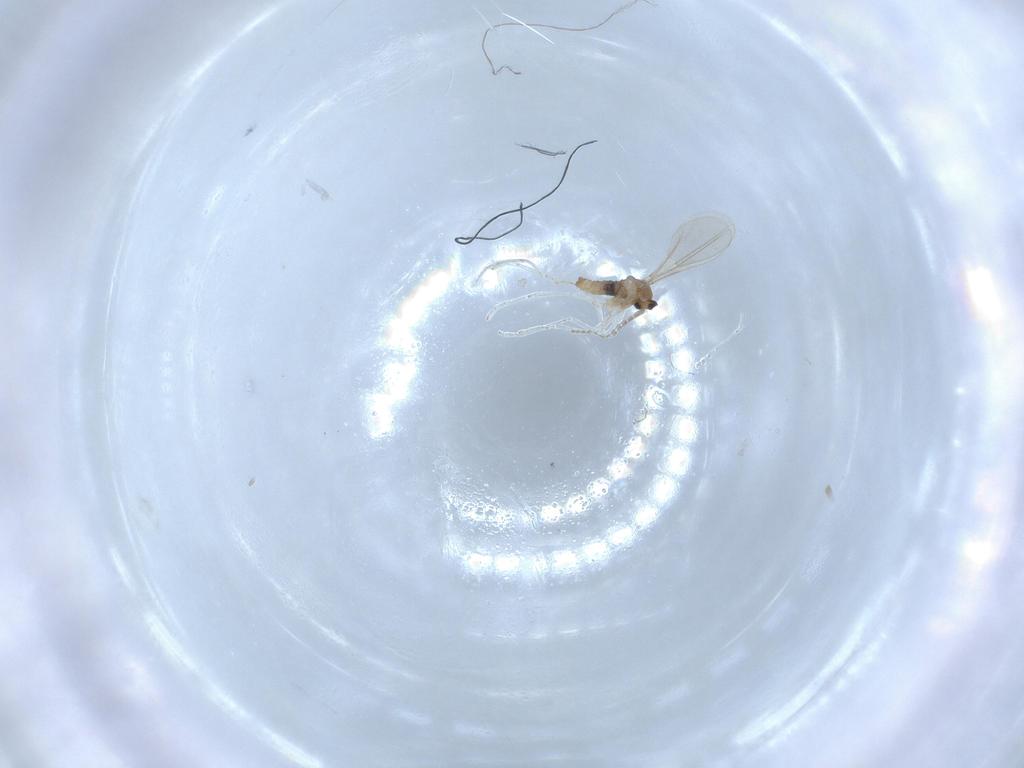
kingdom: Animalia
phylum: Arthropoda
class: Insecta
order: Diptera
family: Cecidomyiidae
